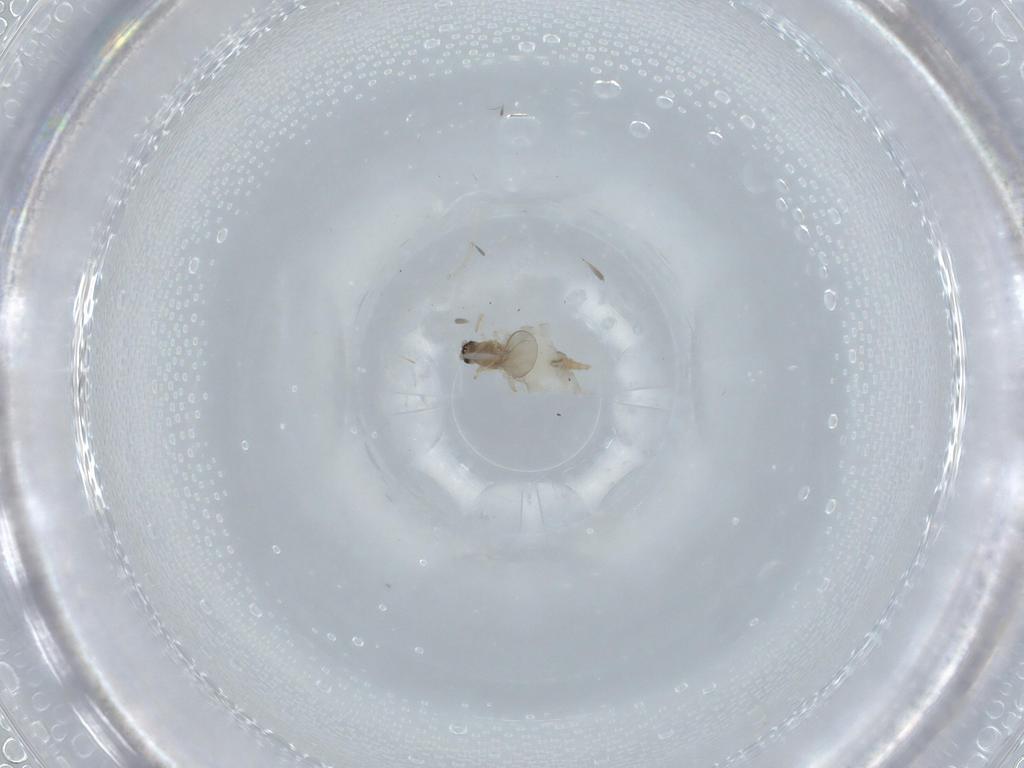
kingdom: Animalia
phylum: Arthropoda
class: Insecta
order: Diptera
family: Cecidomyiidae
